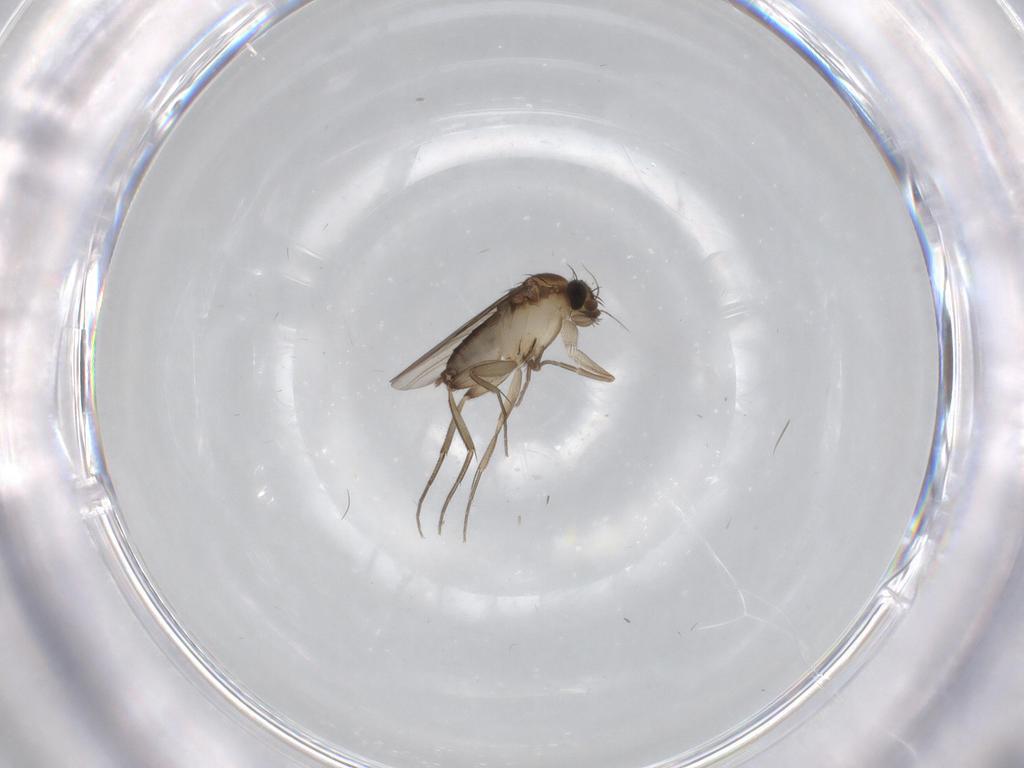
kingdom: Animalia
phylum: Arthropoda
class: Insecta
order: Diptera
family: Phoridae
